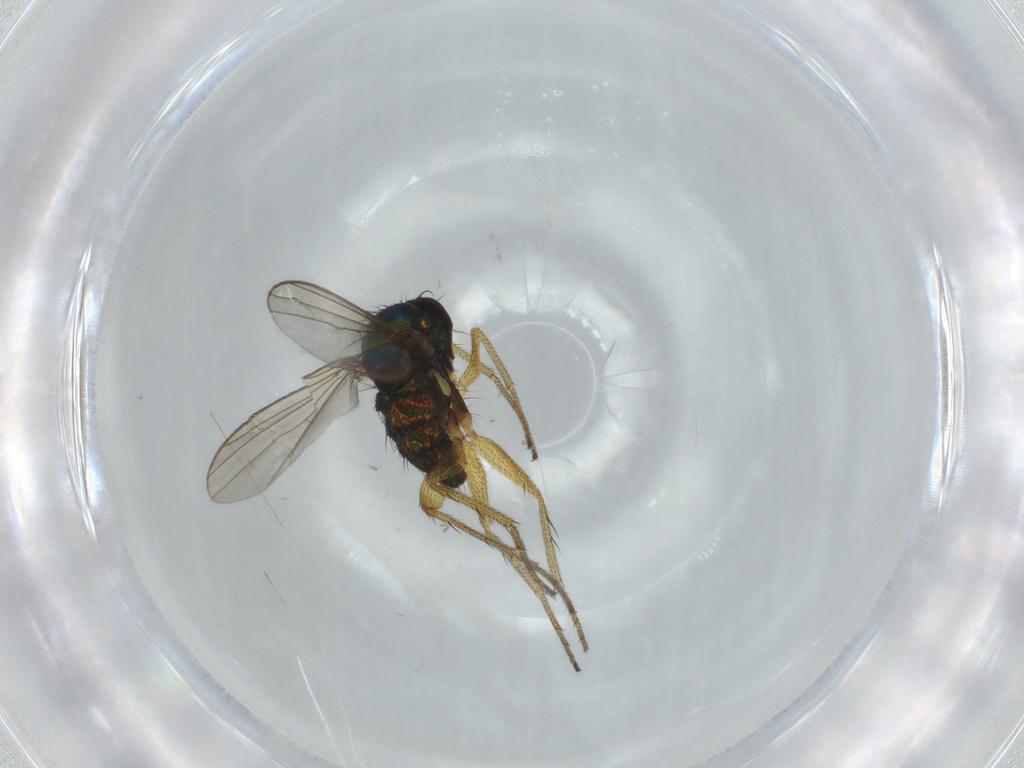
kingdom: Animalia
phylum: Arthropoda
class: Insecta
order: Diptera
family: Dolichopodidae
